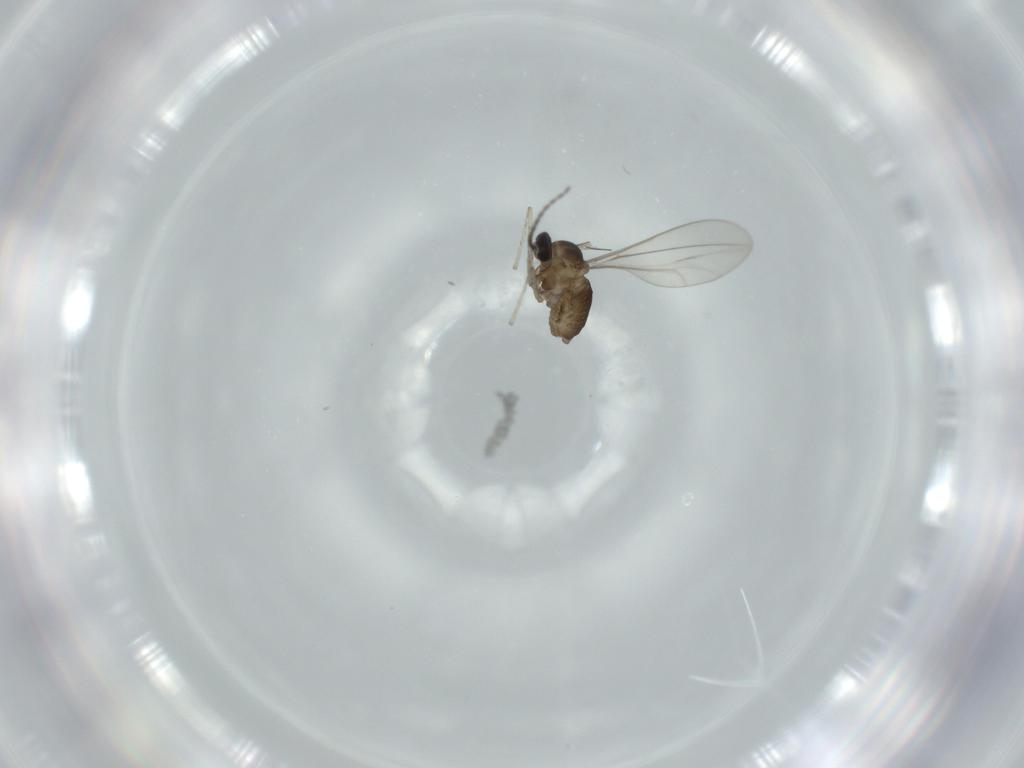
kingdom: Animalia
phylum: Arthropoda
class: Insecta
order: Diptera
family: Cecidomyiidae
